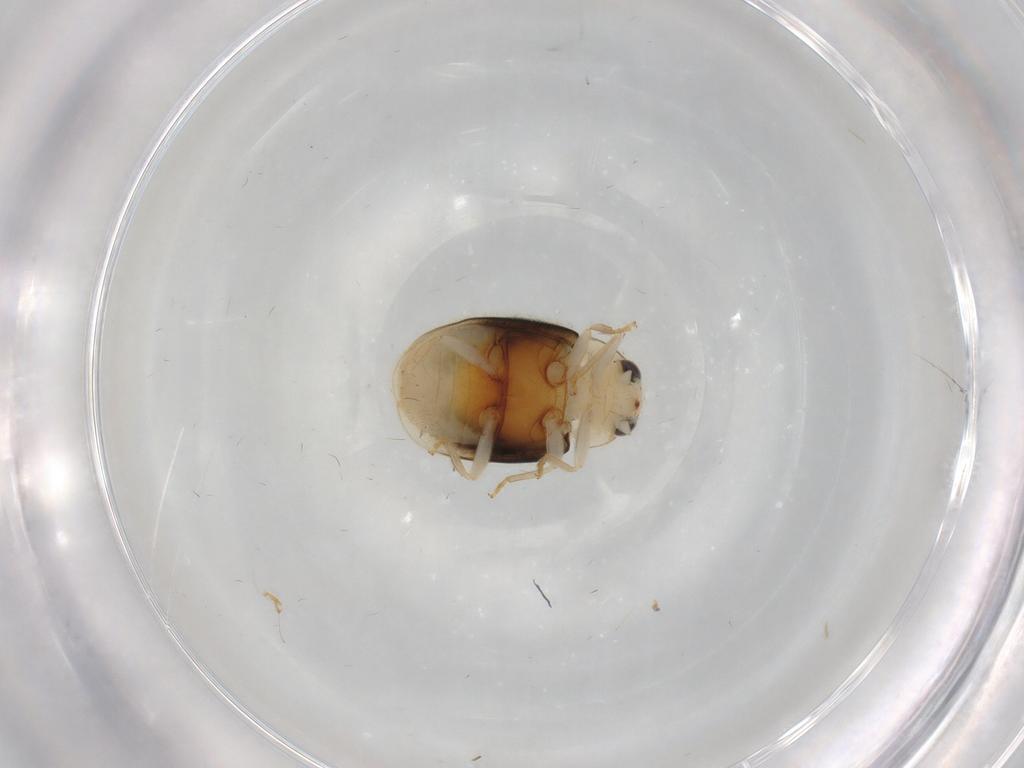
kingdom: Animalia
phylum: Arthropoda
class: Insecta
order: Coleoptera
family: Coccinellidae
